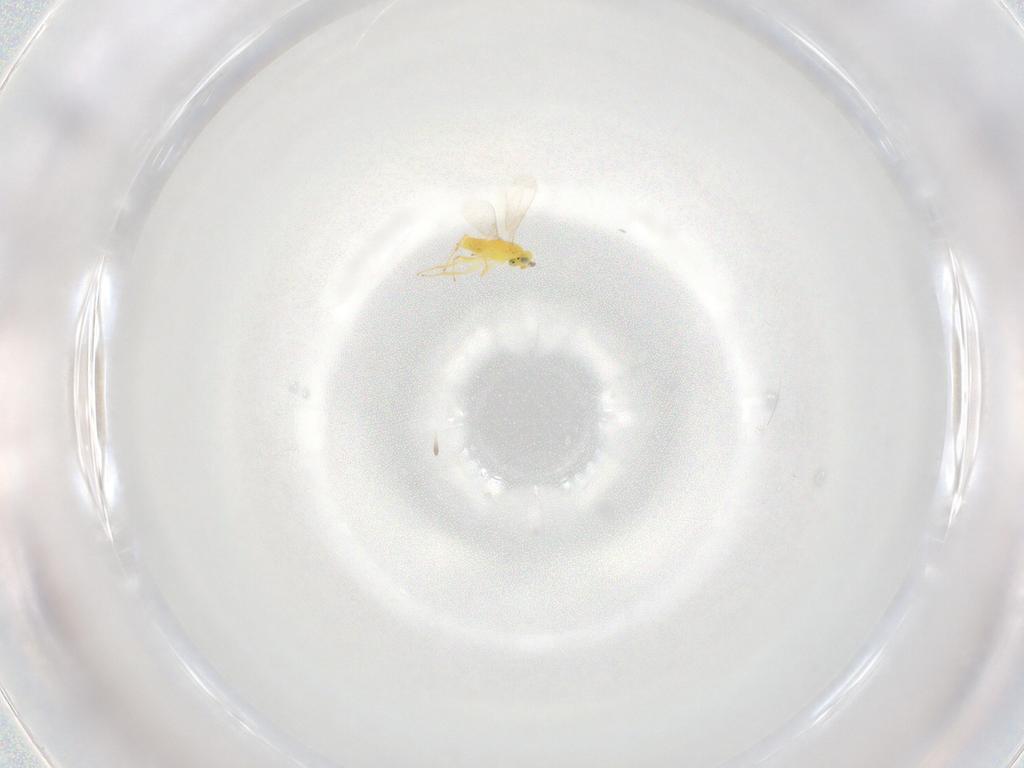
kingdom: Animalia
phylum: Arthropoda
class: Insecta
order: Hymenoptera
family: Aphelinidae
